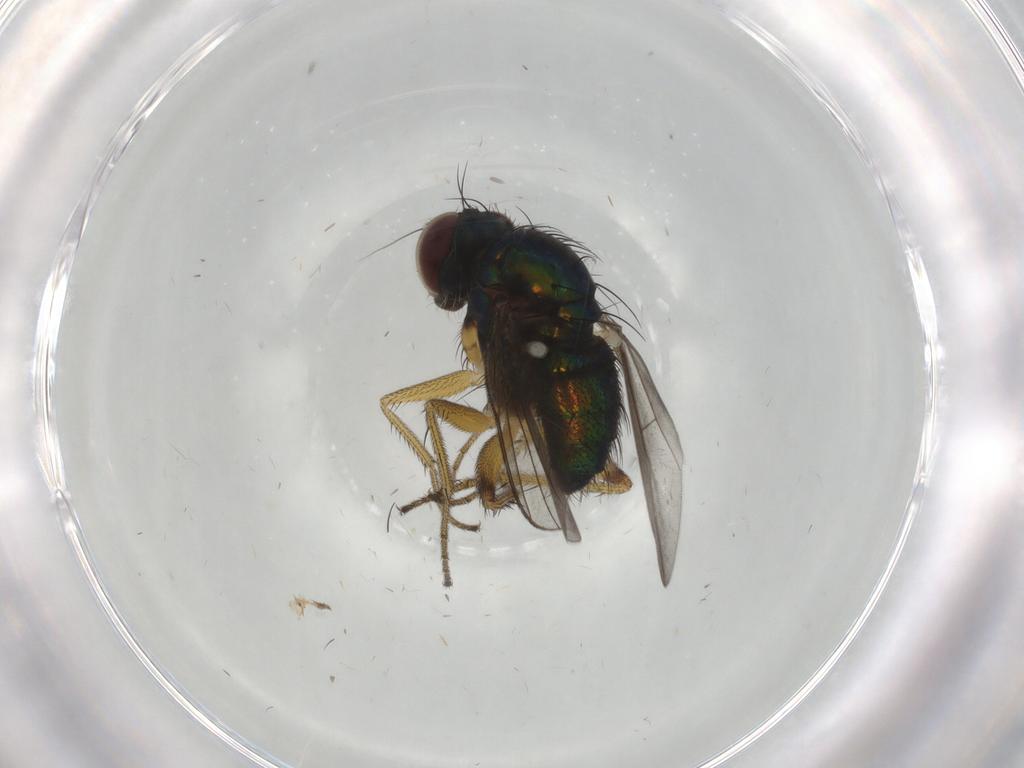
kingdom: Animalia
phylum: Arthropoda
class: Insecta
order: Diptera
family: Dolichopodidae
